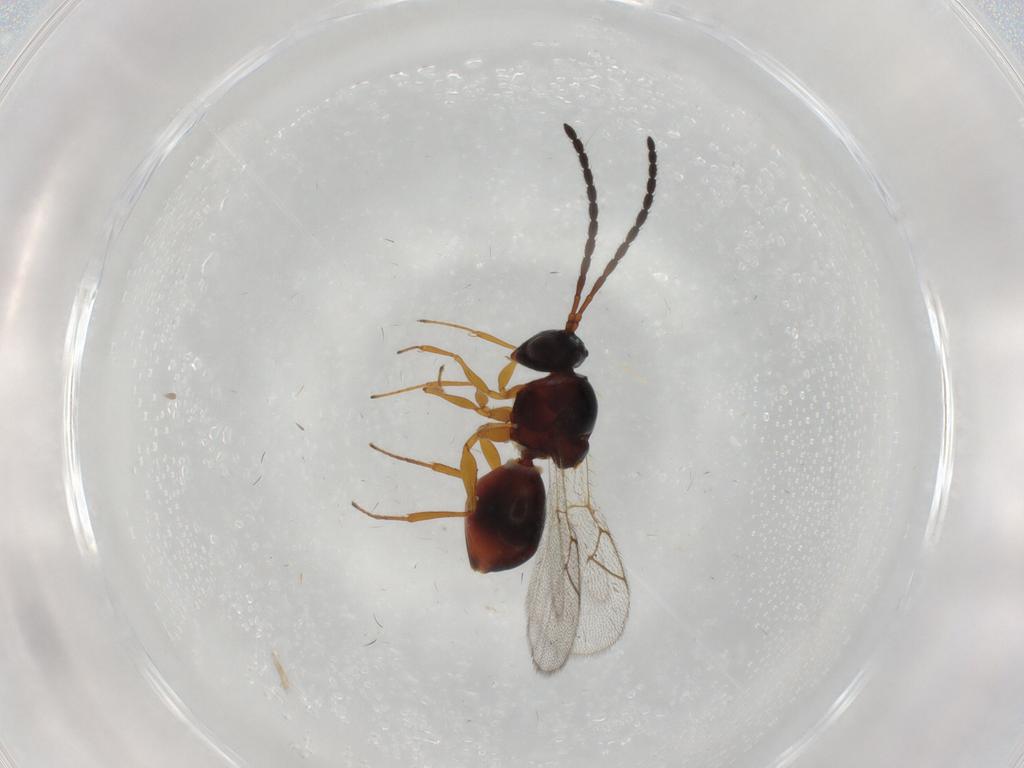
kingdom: Animalia
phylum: Arthropoda
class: Insecta
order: Hymenoptera
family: Figitidae
